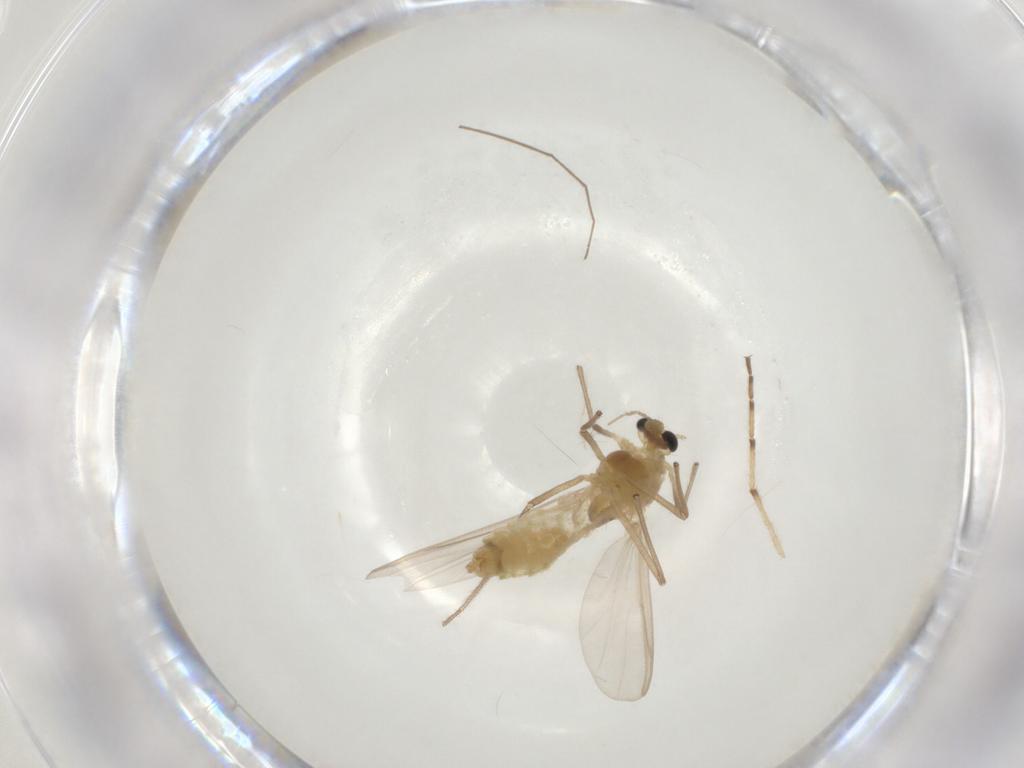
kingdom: Animalia
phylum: Arthropoda
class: Insecta
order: Diptera
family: Chironomidae
